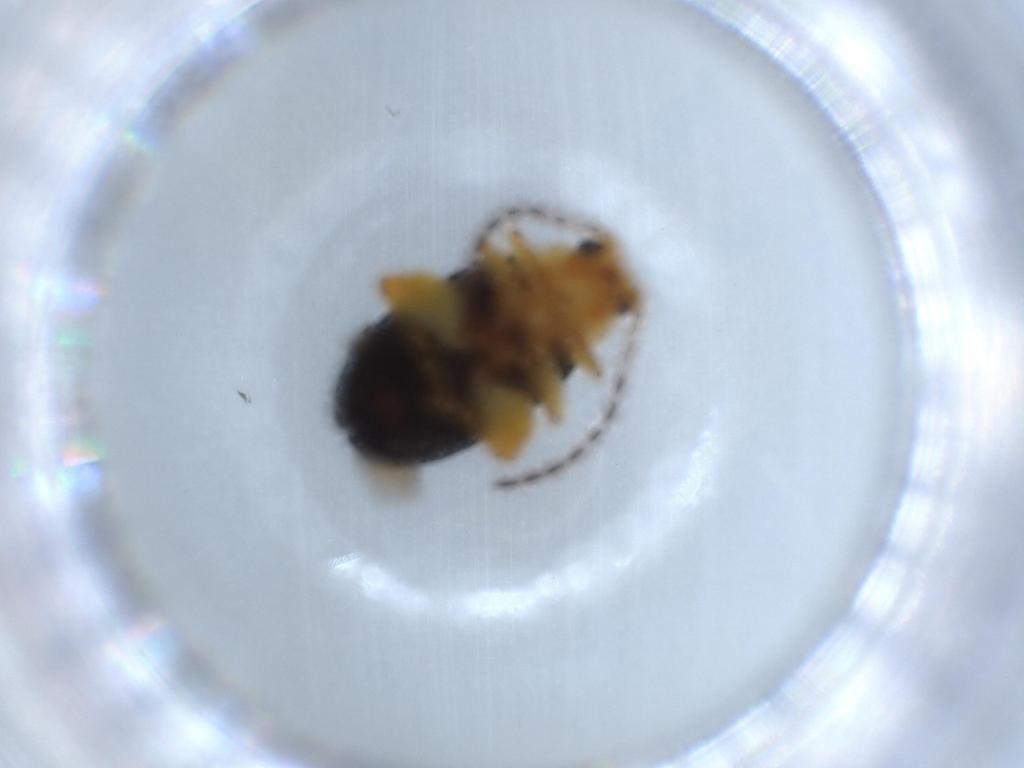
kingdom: Animalia
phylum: Arthropoda
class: Insecta
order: Coleoptera
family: Chrysomelidae
